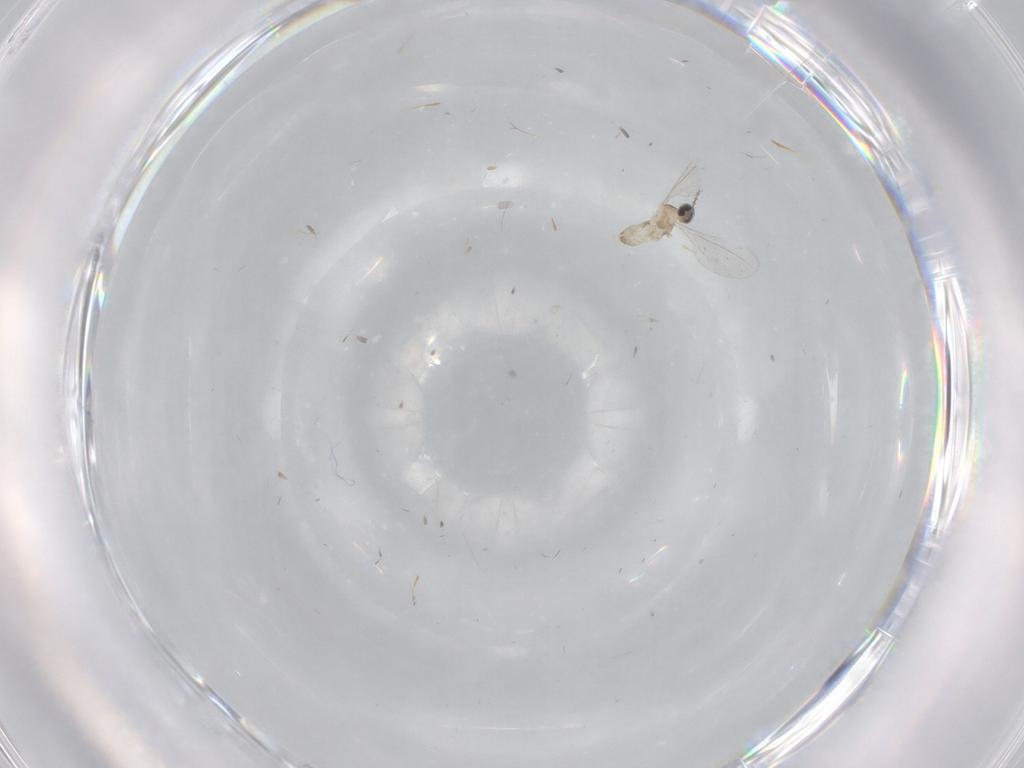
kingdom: Animalia
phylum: Arthropoda
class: Insecta
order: Diptera
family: Cecidomyiidae
